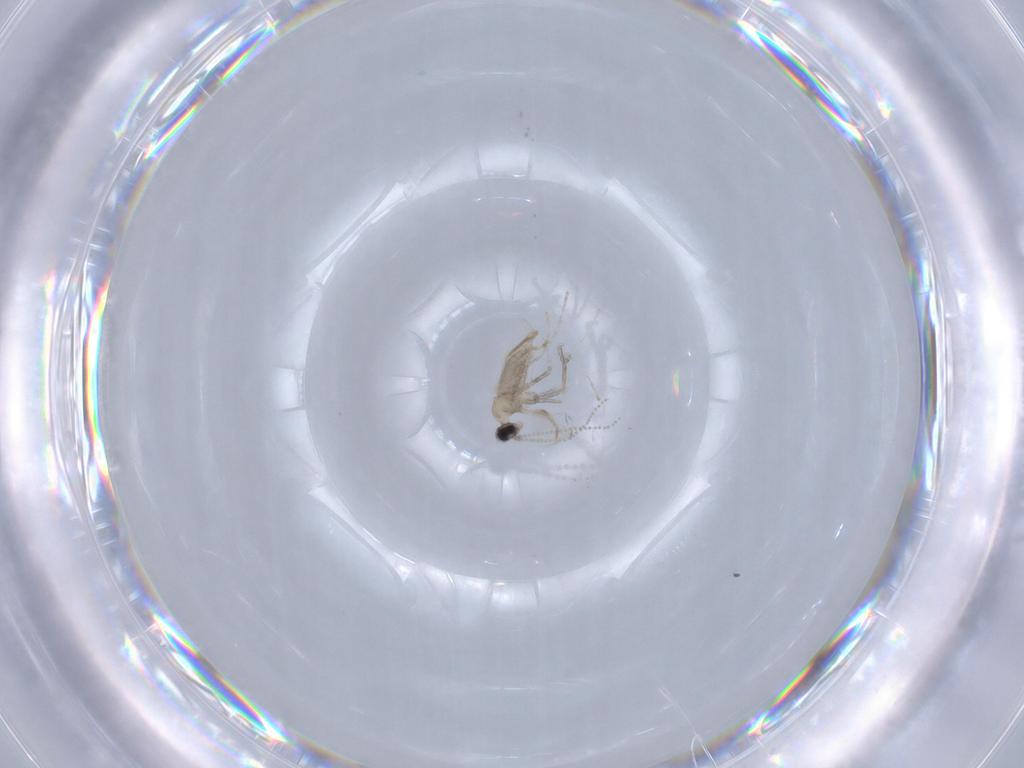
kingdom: Animalia
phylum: Arthropoda
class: Insecta
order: Diptera
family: Cecidomyiidae
